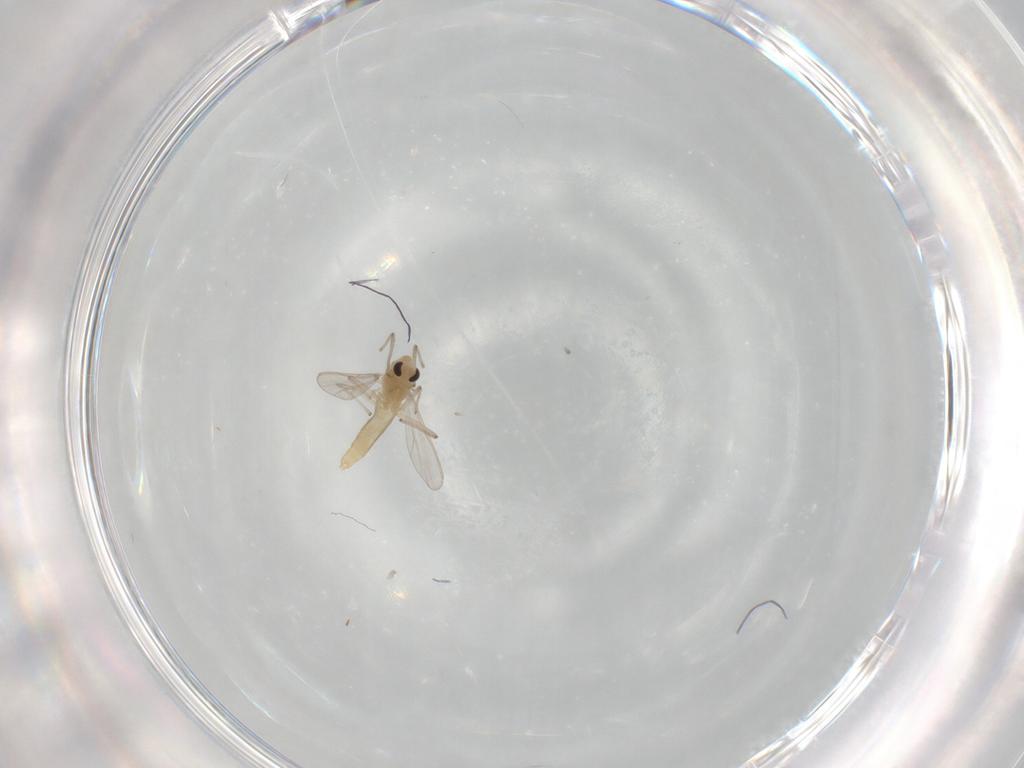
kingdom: Animalia
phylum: Arthropoda
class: Insecta
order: Diptera
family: Chironomidae
